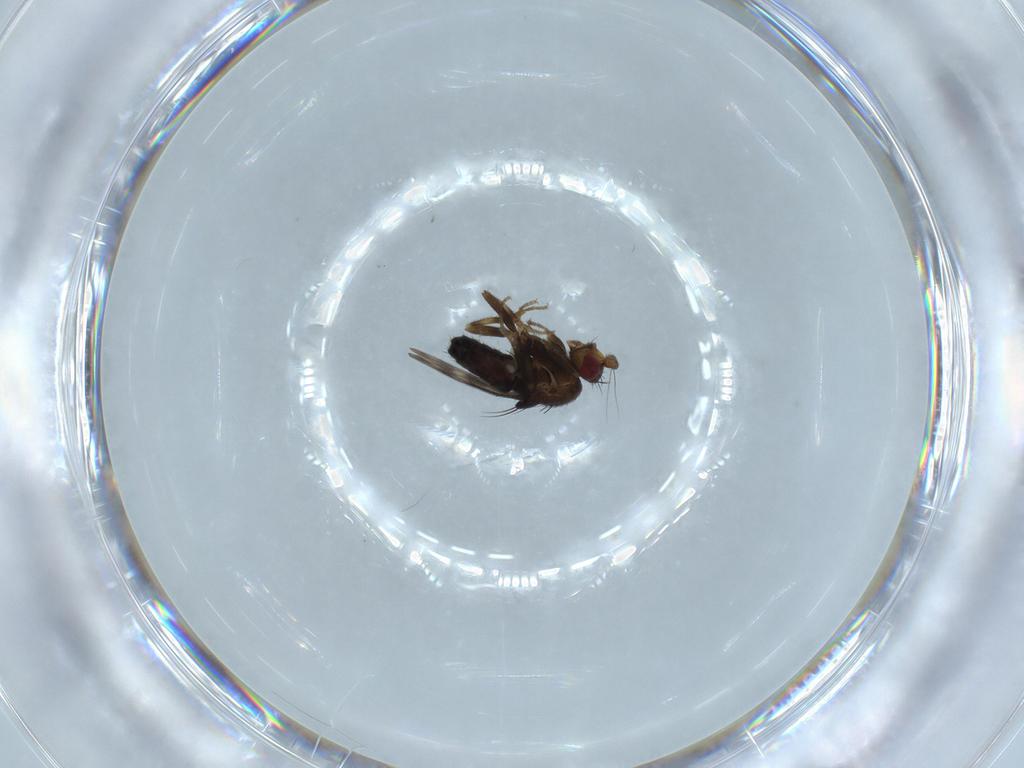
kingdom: Animalia
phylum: Arthropoda
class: Insecta
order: Diptera
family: Sphaeroceridae
